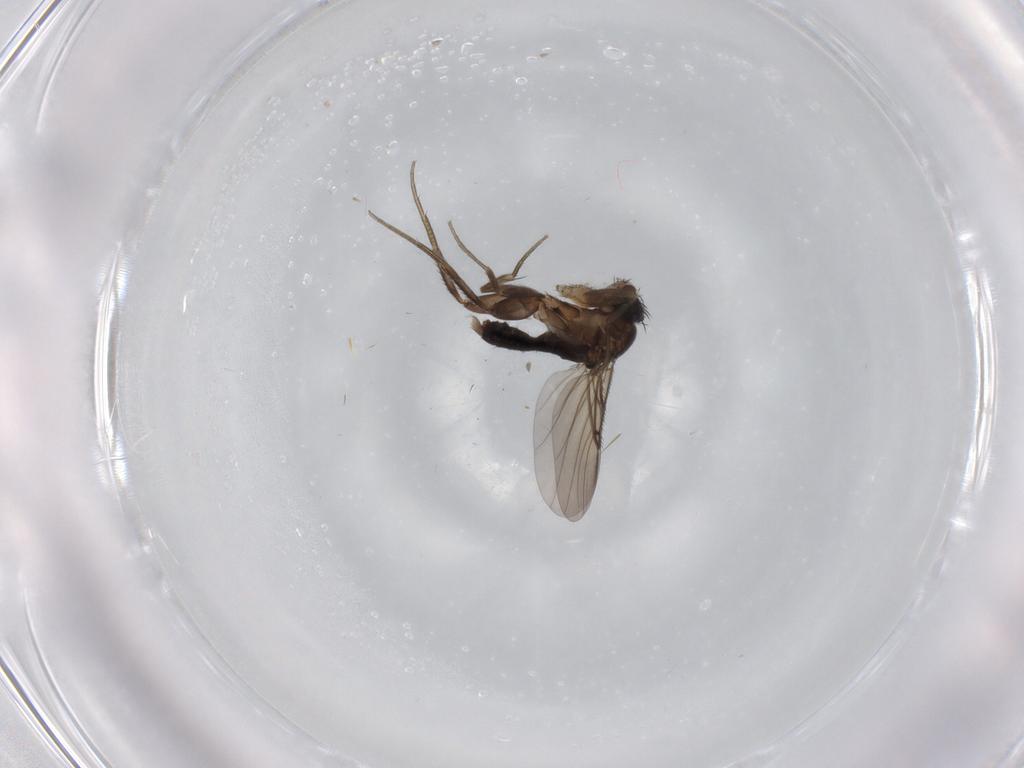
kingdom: Animalia
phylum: Arthropoda
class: Insecta
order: Diptera
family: Phoridae
